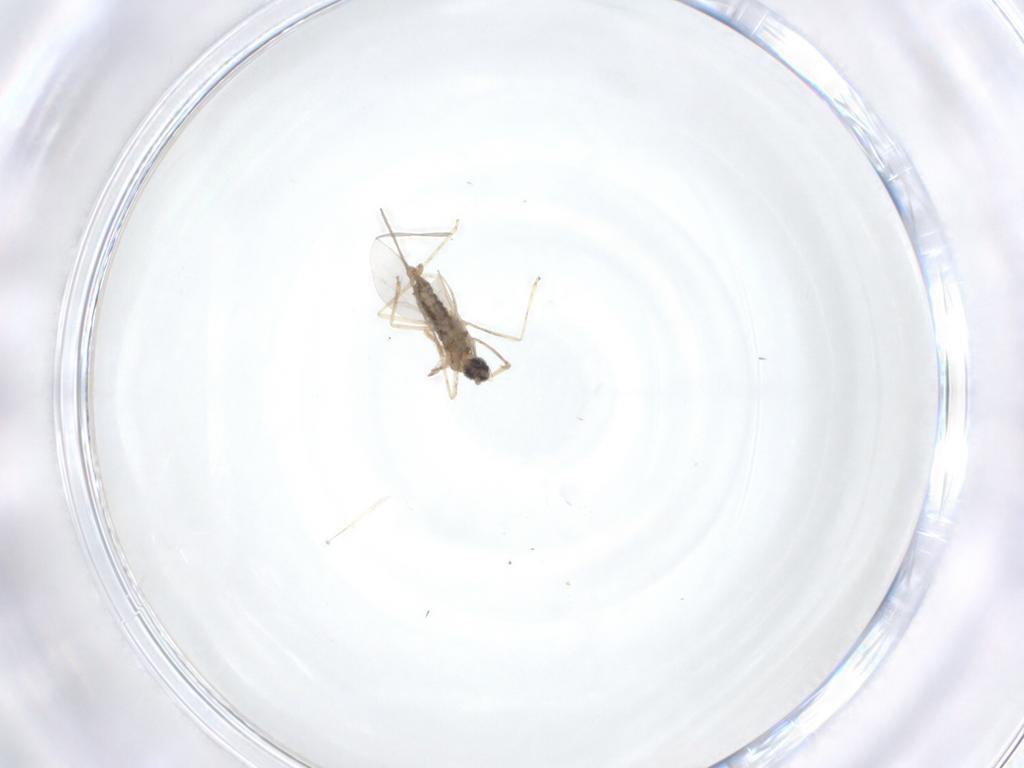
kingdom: Animalia
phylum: Arthropoda
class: Insecta
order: Diptera
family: Cecidomyiidae
